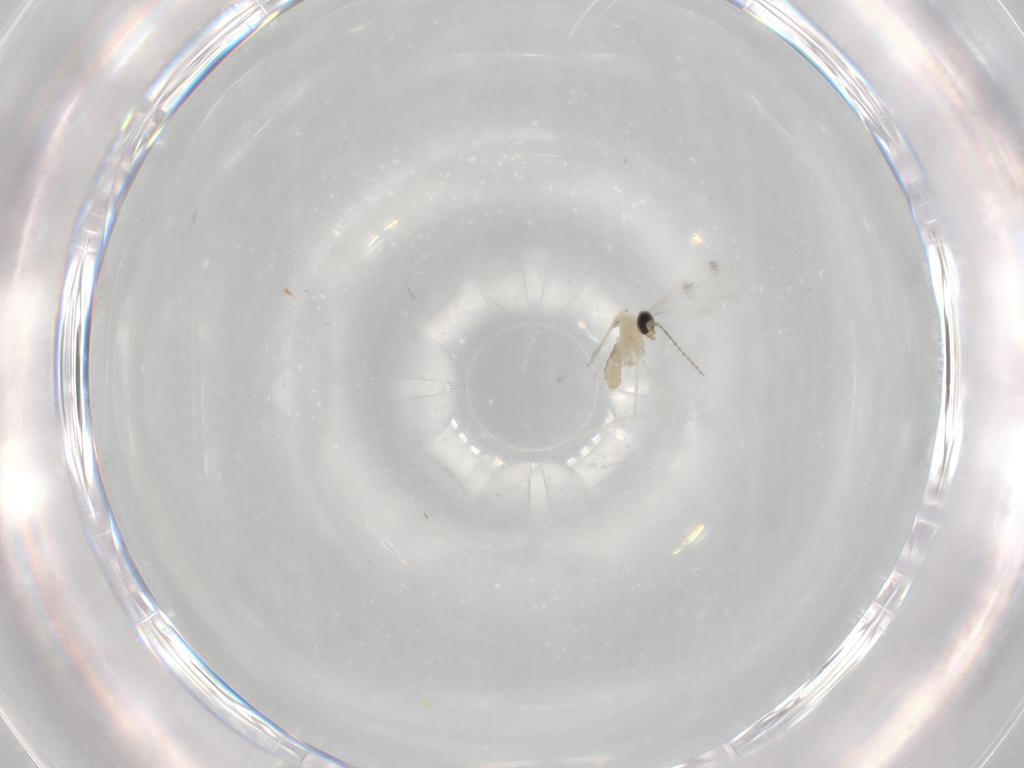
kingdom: Animalia
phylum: Arthropoda
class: Insecta
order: Diptera
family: Cecidomyiidae
